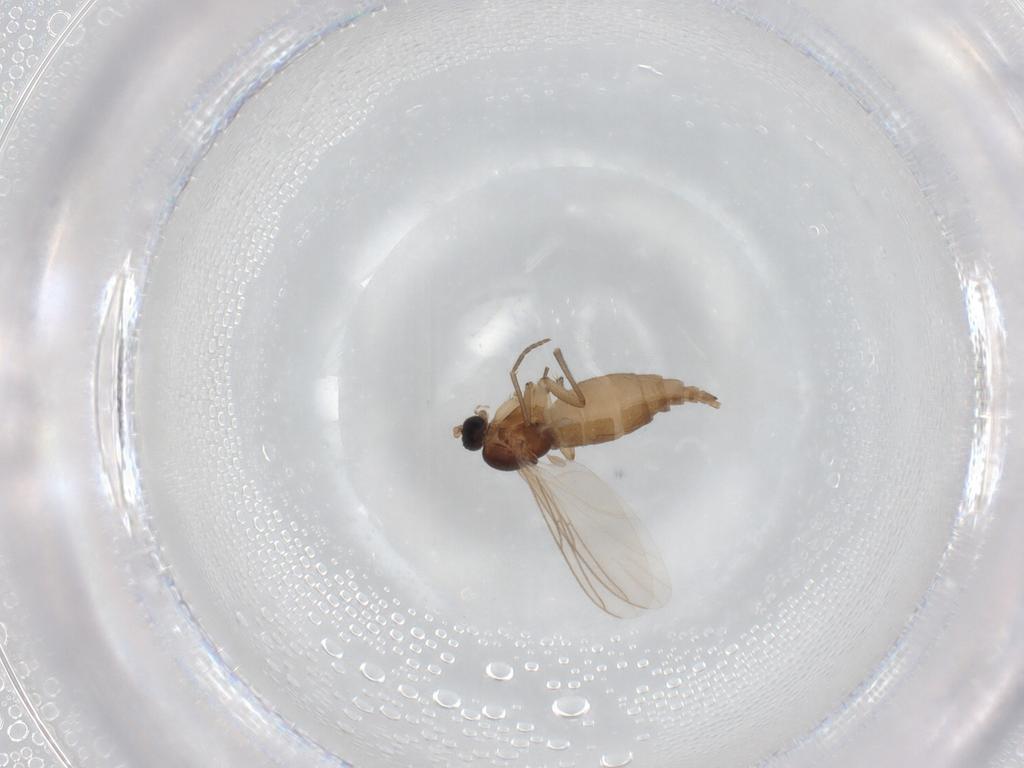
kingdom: Animalia
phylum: Arthropoda
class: Insecta
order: Diptera
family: Sciaridae
